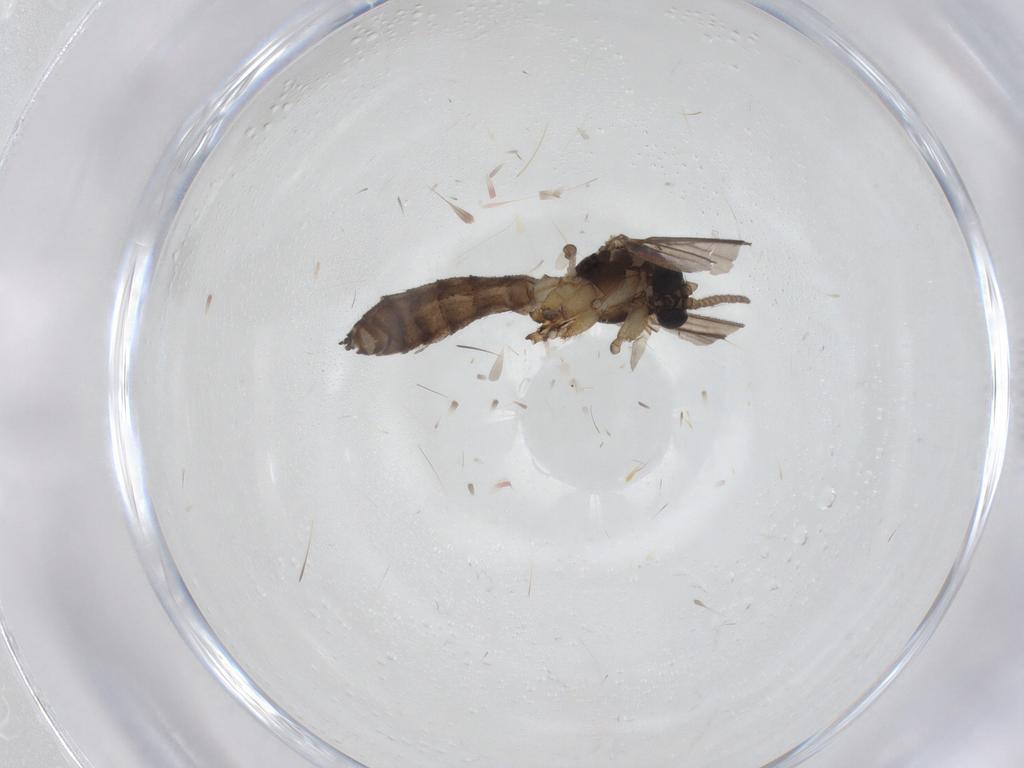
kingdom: Animalia
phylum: Arthropoda
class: Insecta
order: Diptera
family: Mycetophilidae
